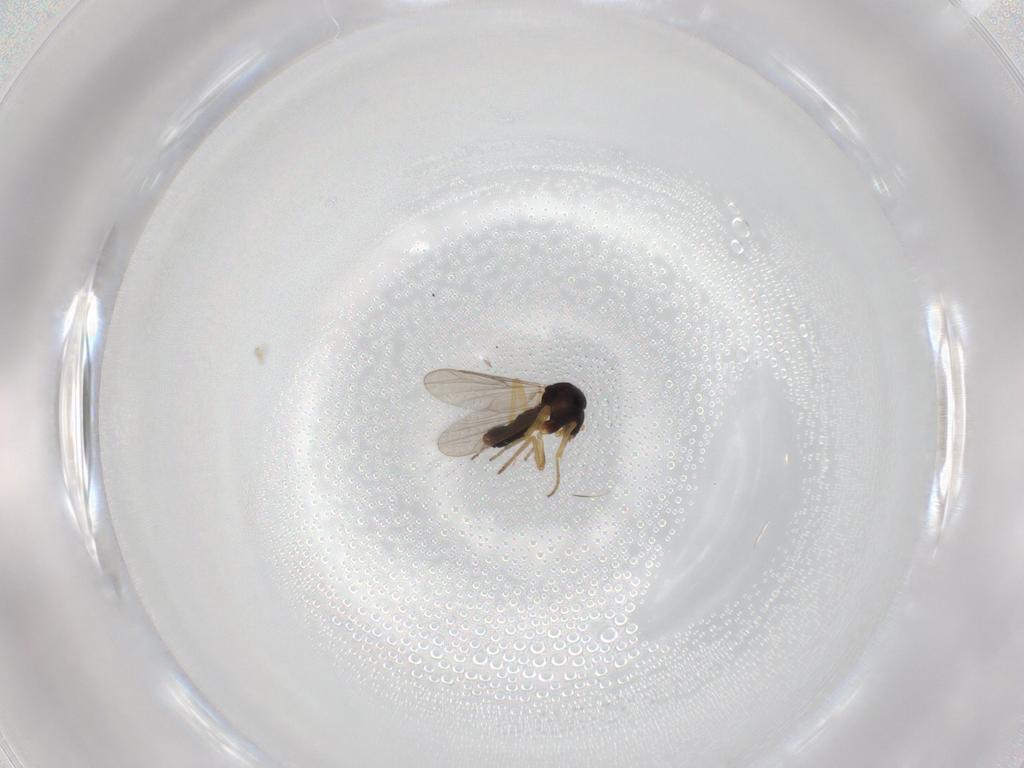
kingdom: Animalia
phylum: Arthropoda
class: Insecta
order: Diptera
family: Ceratopogonidae
